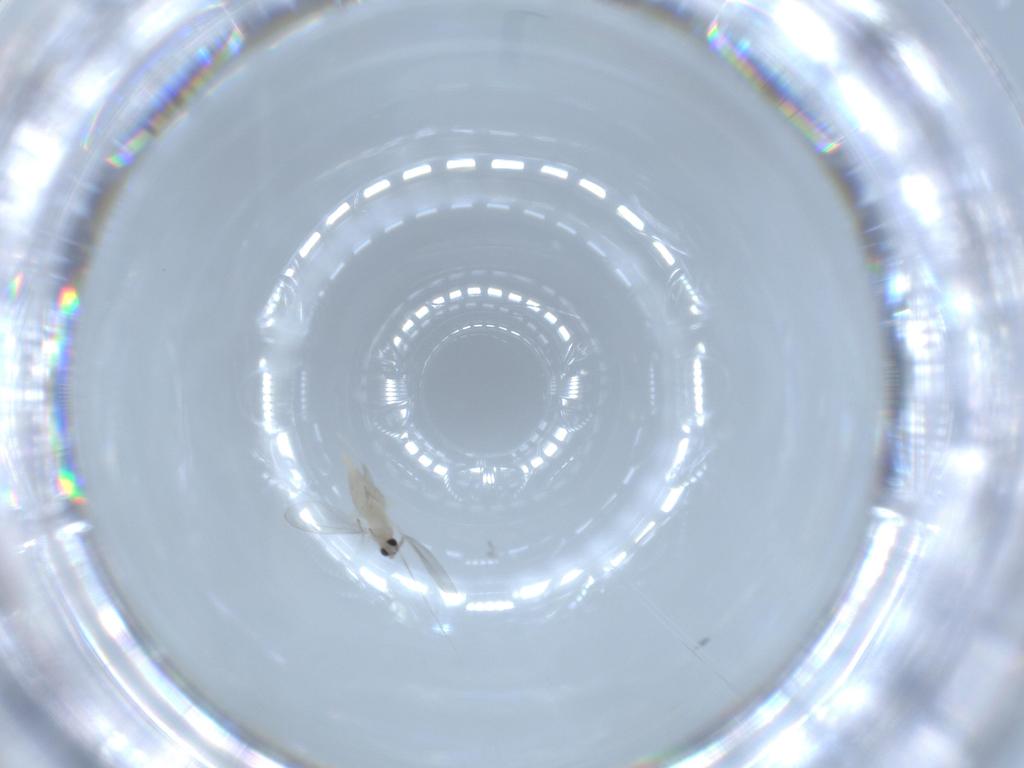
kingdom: Animalia
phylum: Arthropoda
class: Insecta
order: Diptera
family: Cecidomyiidae
